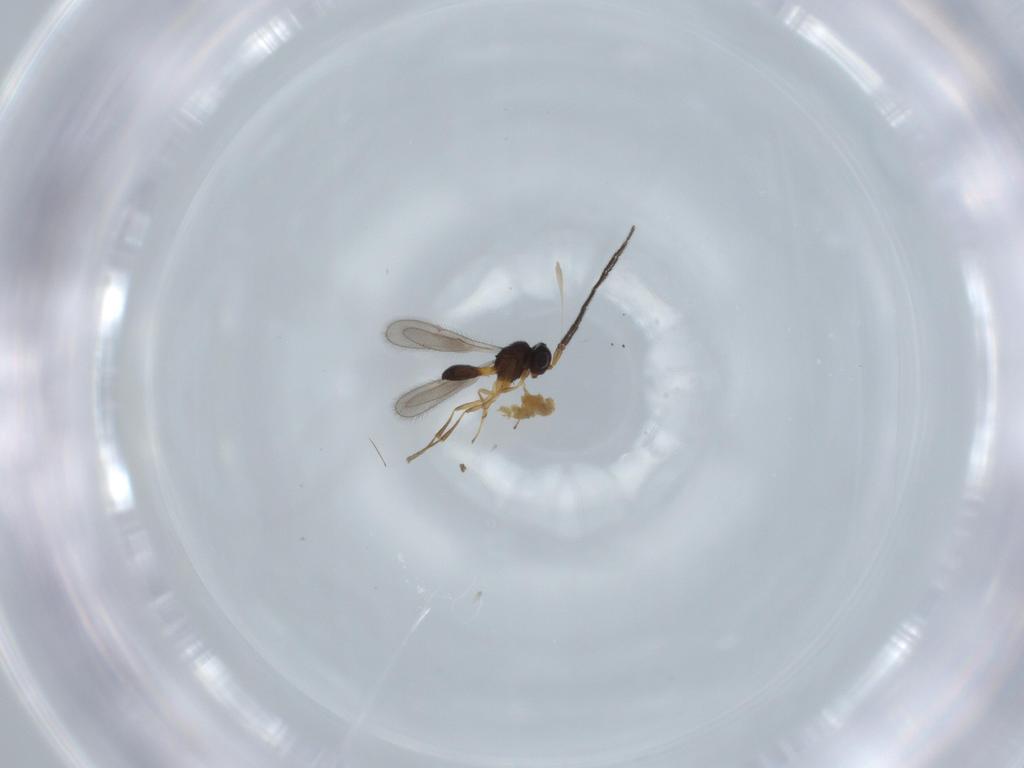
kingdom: Animalia
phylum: Arthropoda
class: Insecta
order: Hymenoptera
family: Scelionidae
